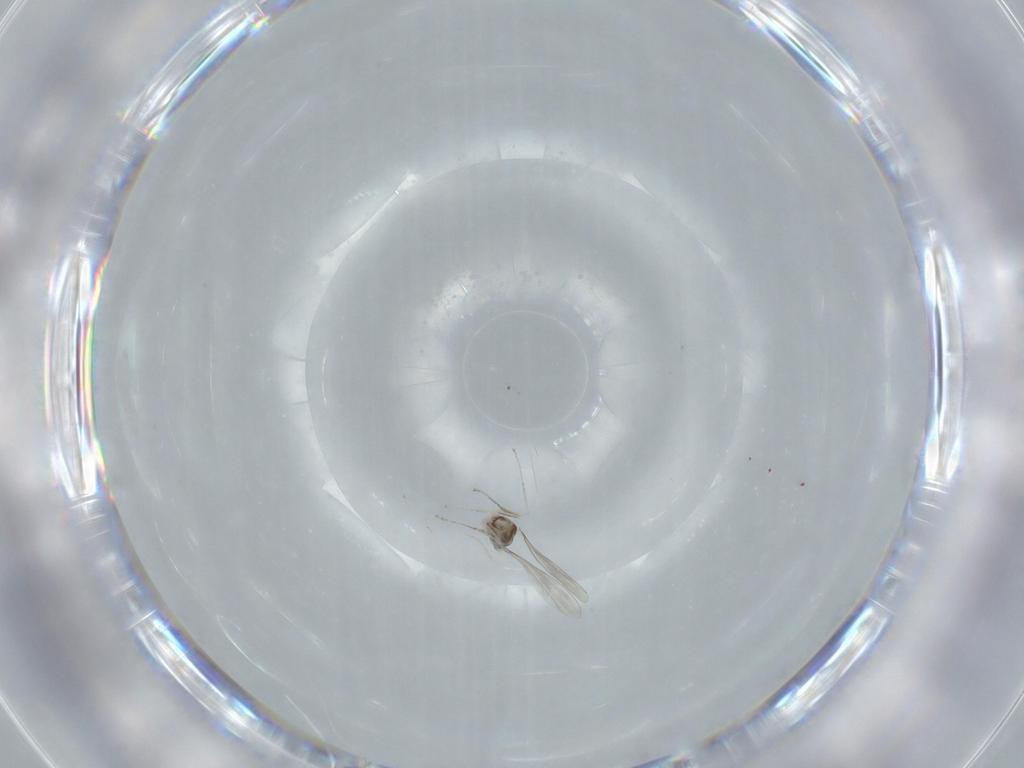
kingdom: Animalia
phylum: Arthropoda
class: Insecta
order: Diptera
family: Cecidomyiidae
